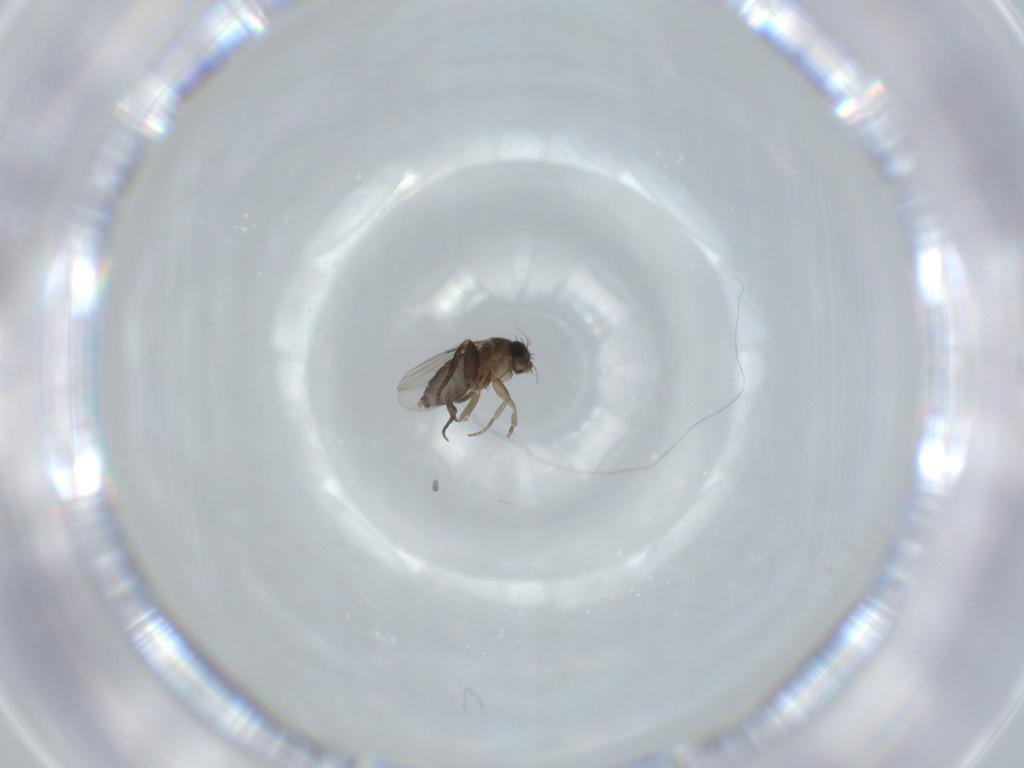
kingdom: Animalia
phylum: Arthropoda
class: Insecta
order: Diptera
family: Phoridae
